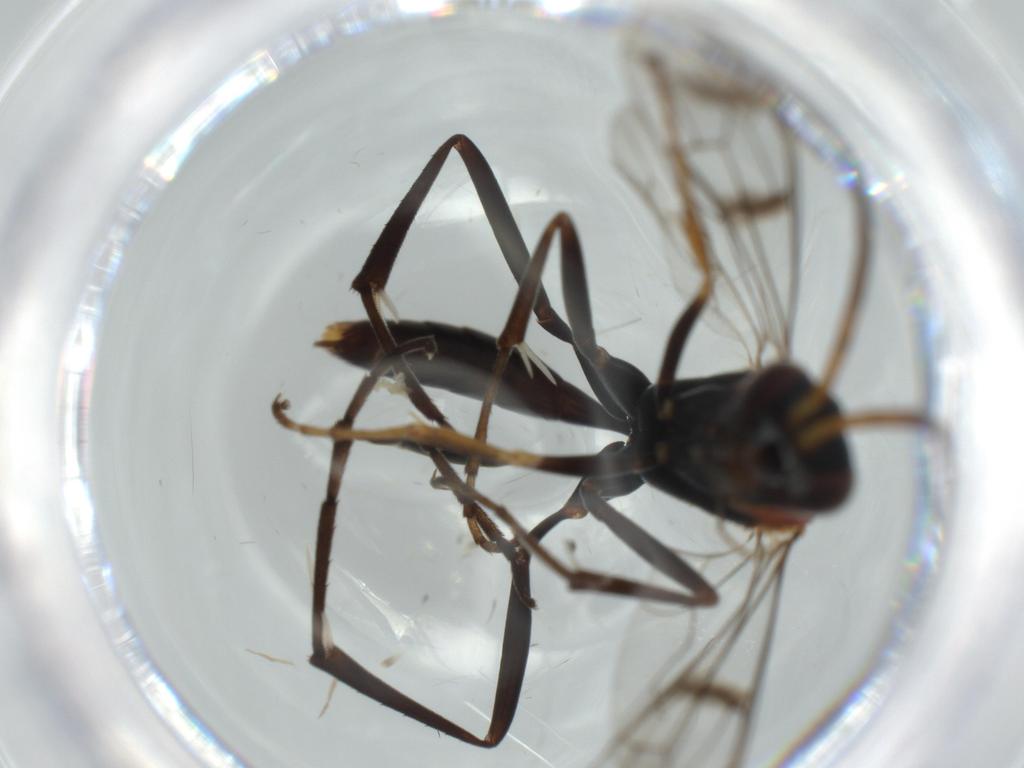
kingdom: Animalia
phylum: Arthropoda
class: Insecta
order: Hymenoptera
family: Pompilidae
